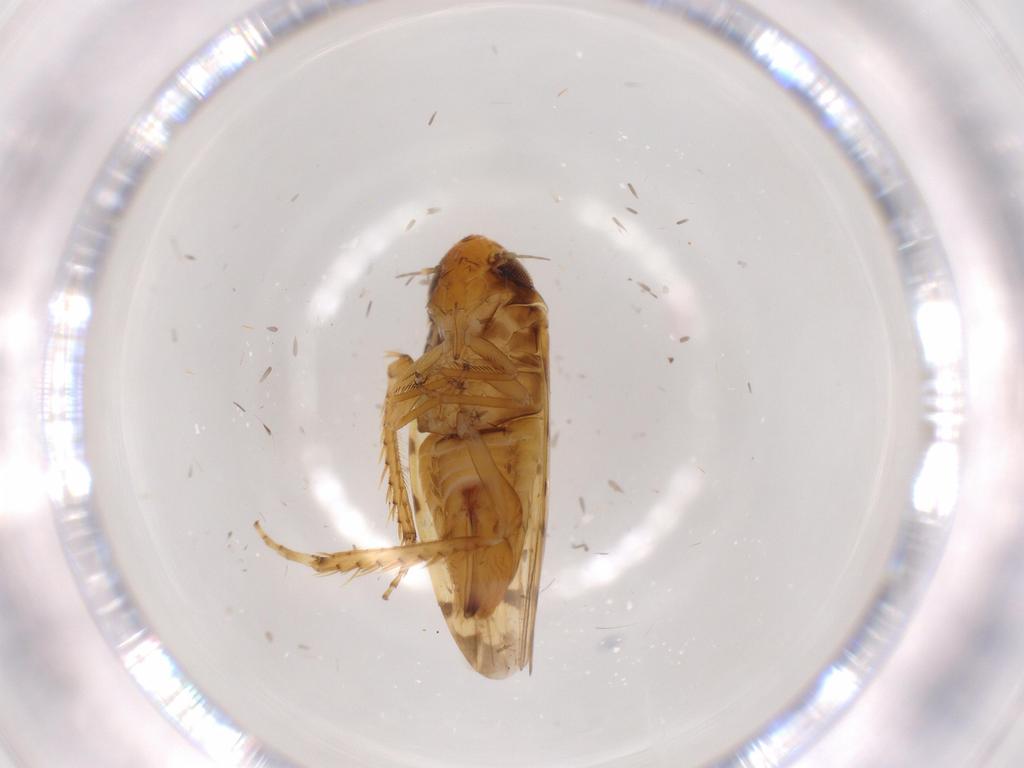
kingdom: Animalia
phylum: Arthropoda
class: Insecta
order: Hemiptera
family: Cicadellidae
